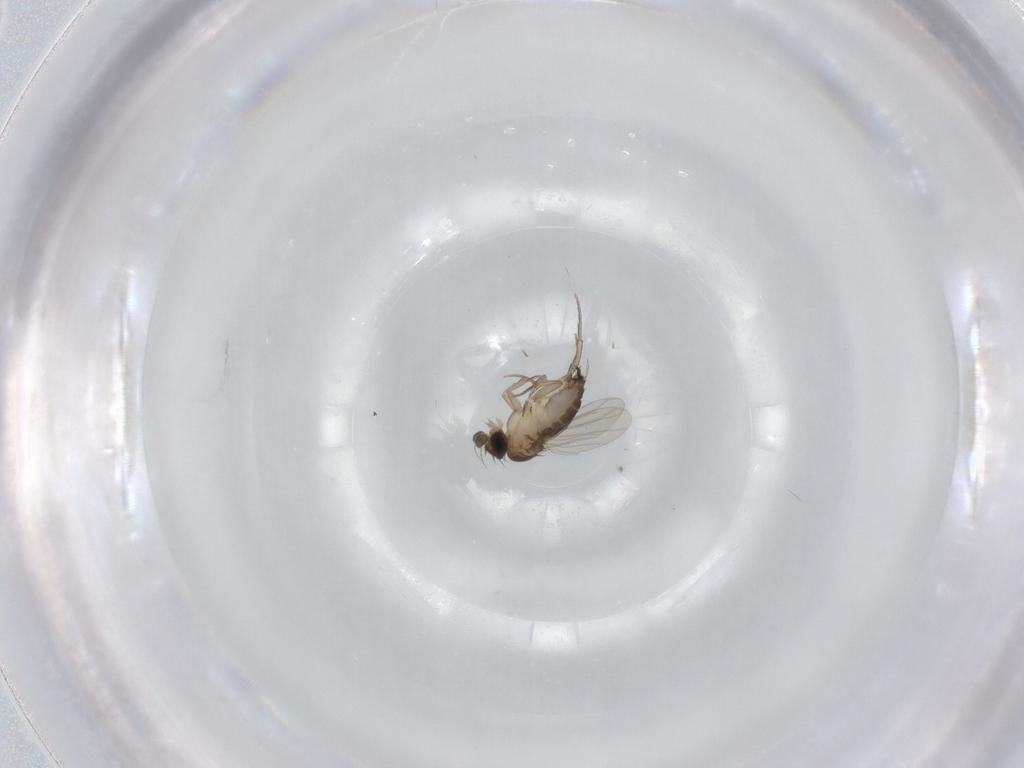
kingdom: Animalia
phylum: Arthropoda
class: Insecta
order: Diptera
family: Phoridae
